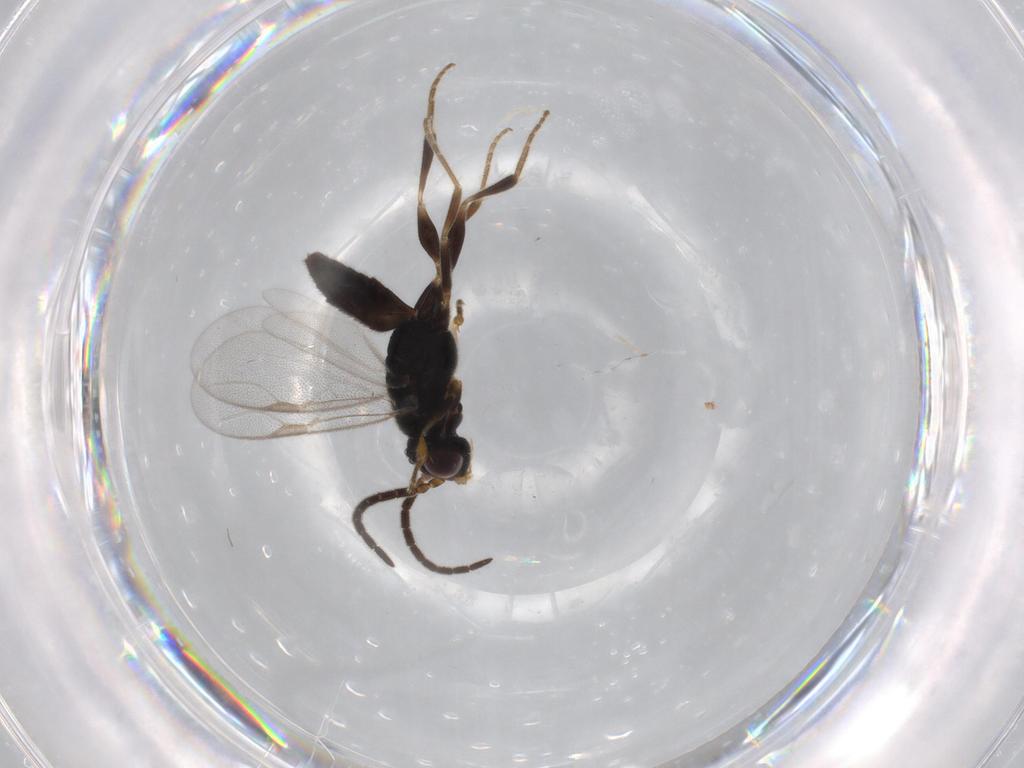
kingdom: Animalia
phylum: Arthropoda
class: Insecta
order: Hymenoptera
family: Dryinidae
